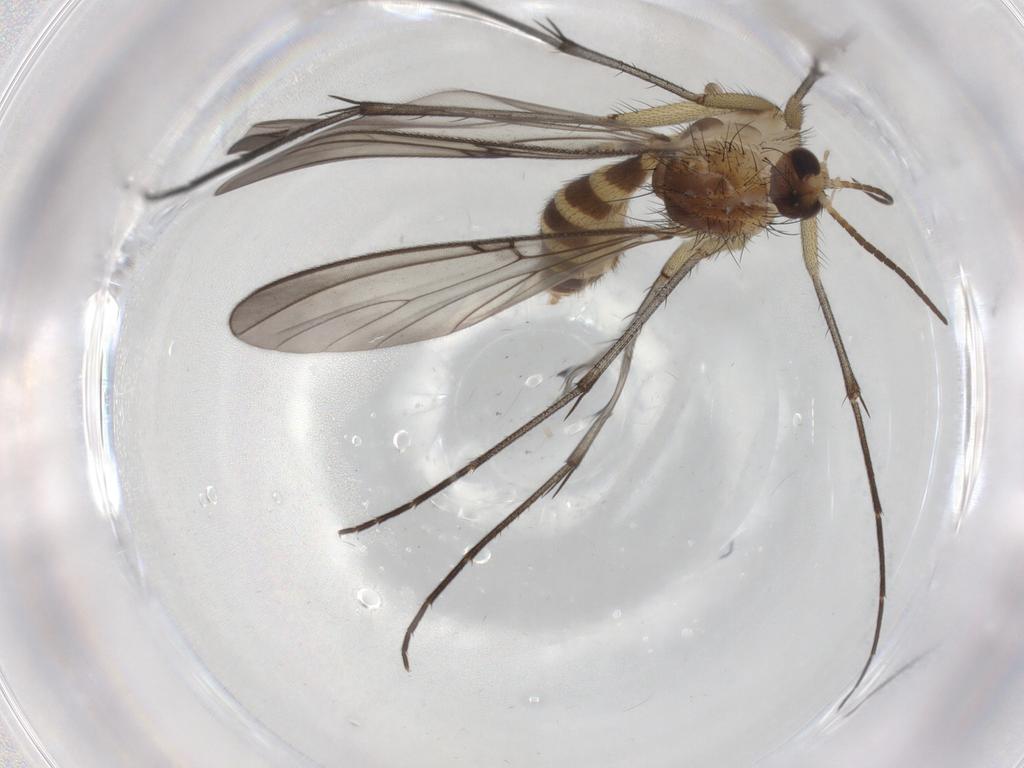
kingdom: Animalia
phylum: Arthropoda
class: Insecta
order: Diptera
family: Mycetophilidae
